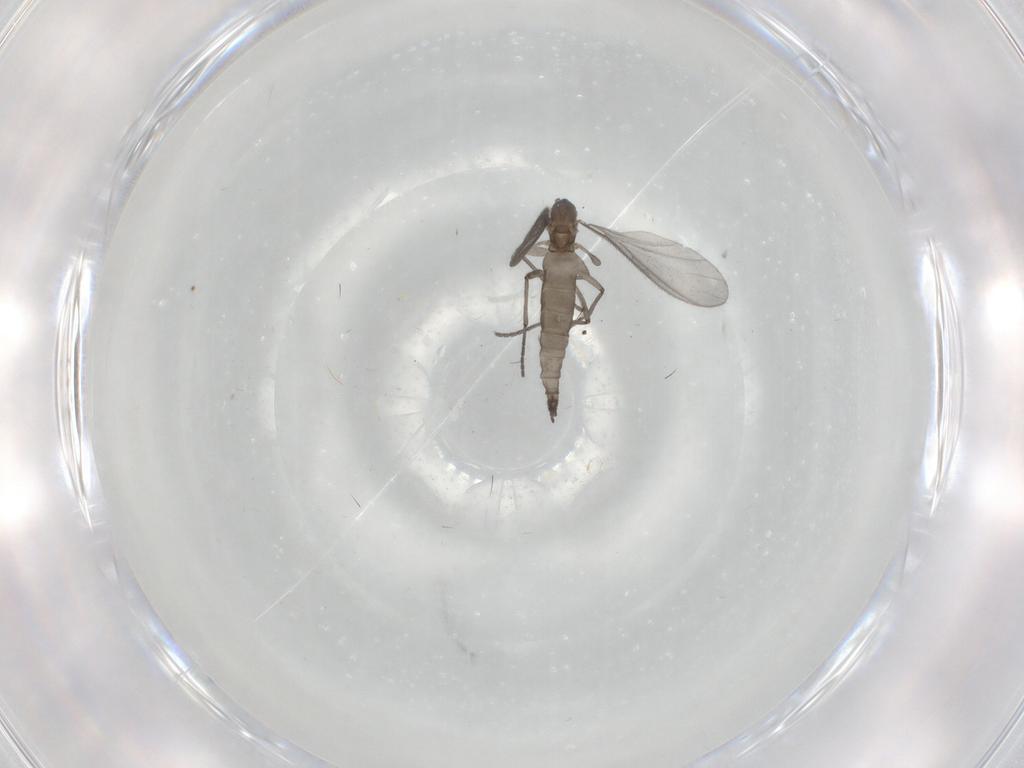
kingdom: Animalia
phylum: Arthropoda
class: Insecta
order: Diptera
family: Sciaridae
